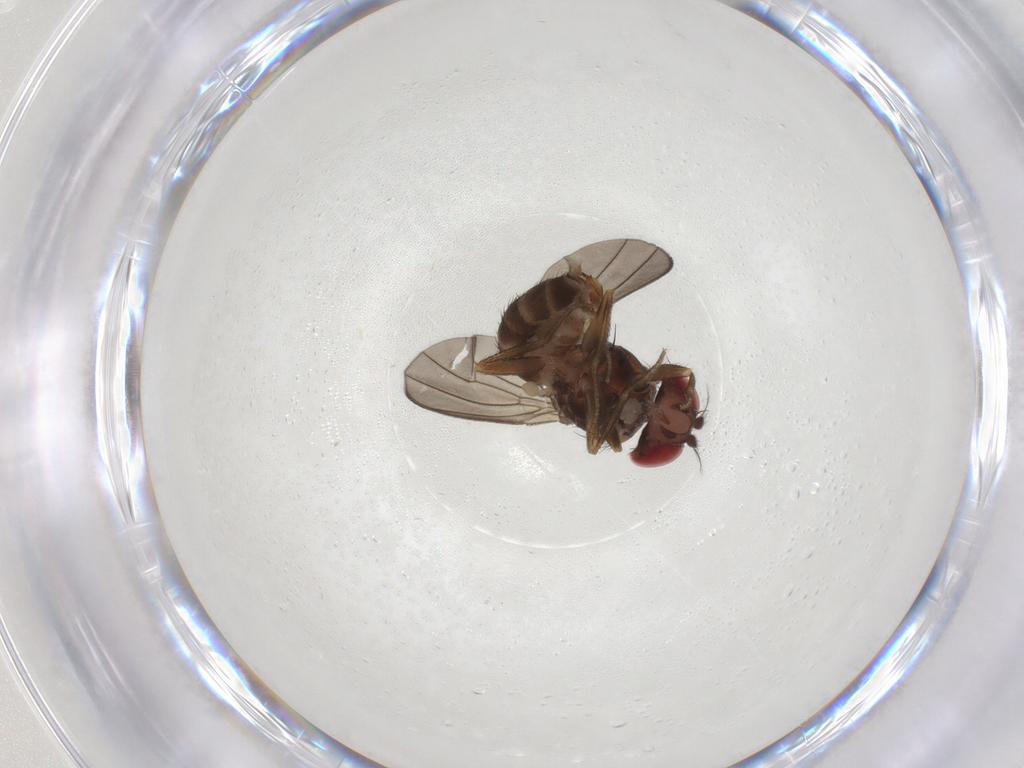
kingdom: Animalia
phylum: Arthropoda
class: Insecta
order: Diptera
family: Drosophilidae
